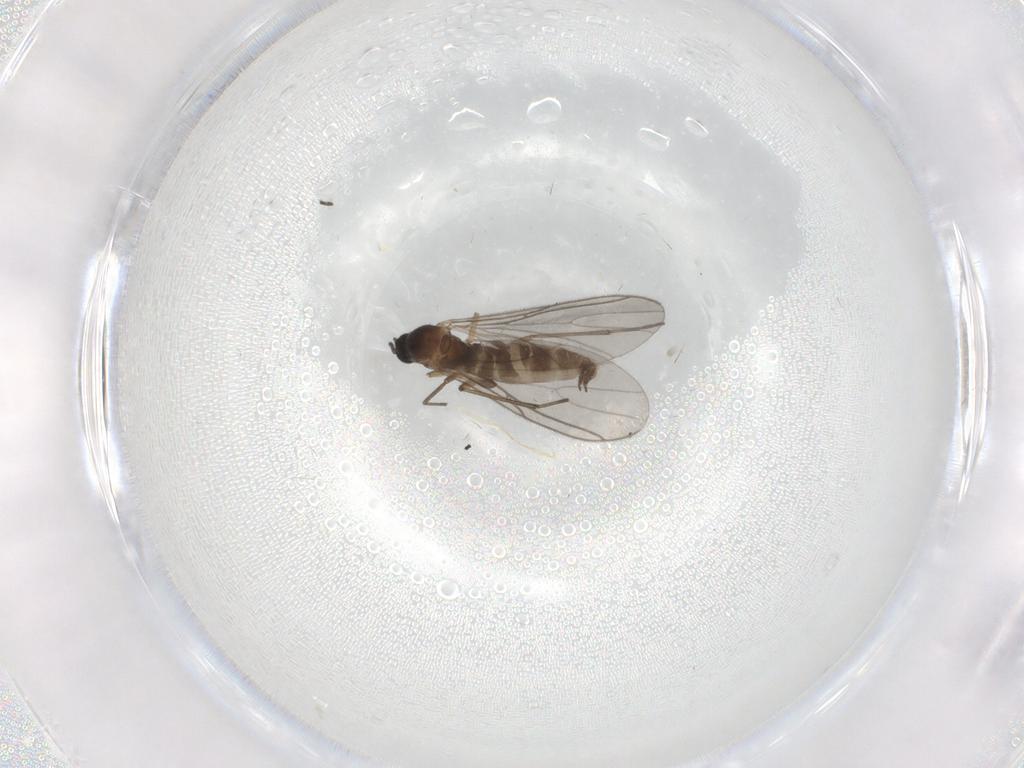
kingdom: Animalia
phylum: Arthropoda
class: Insecta
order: Diptera
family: Sciaridae
